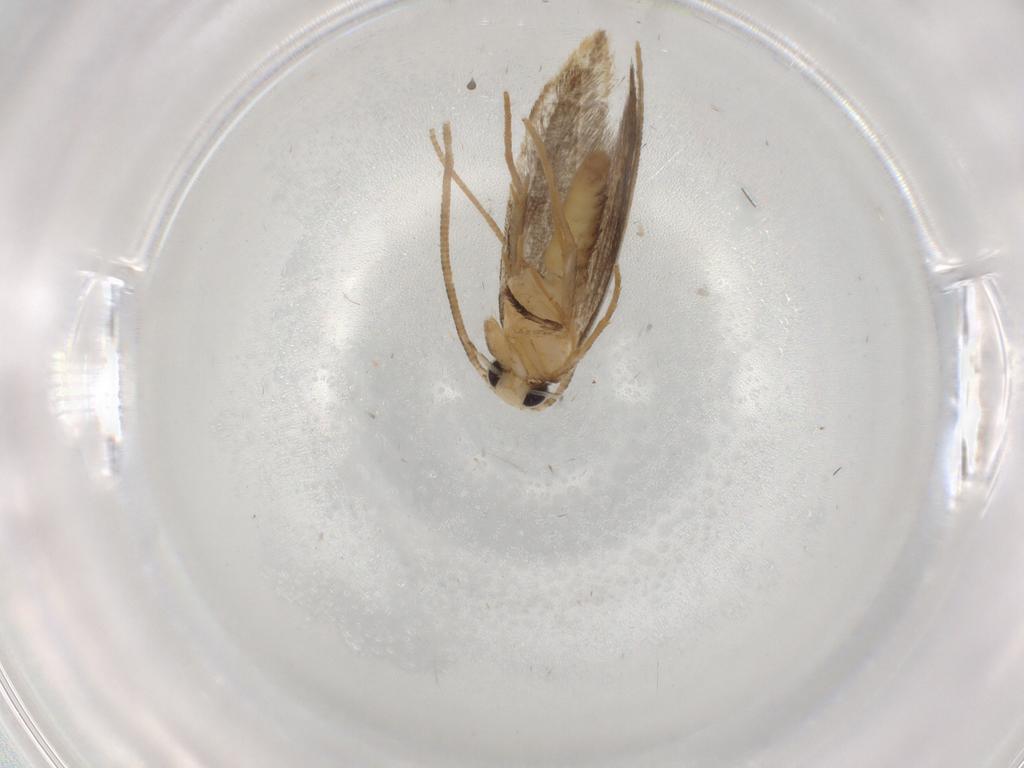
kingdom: Animalia
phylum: Arthropoda
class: Insecta
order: Lepidoptera
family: Tineidae
